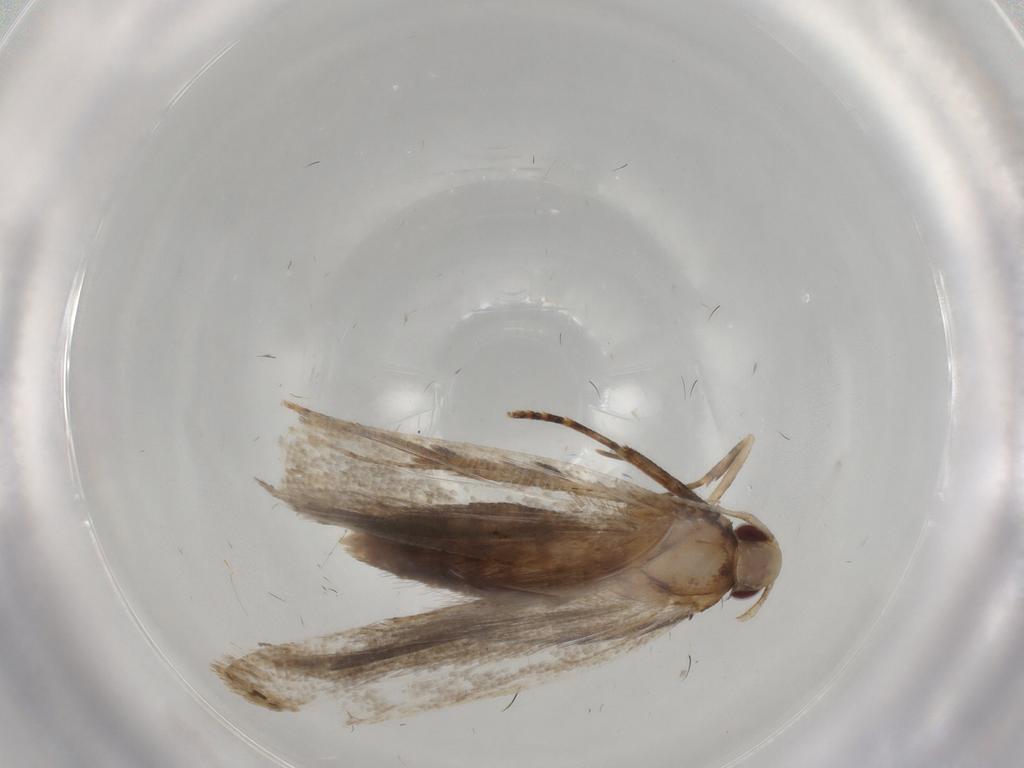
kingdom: Animalia
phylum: Arthropoda
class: Insecta
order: Lepidoptera
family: Gelechiidae
